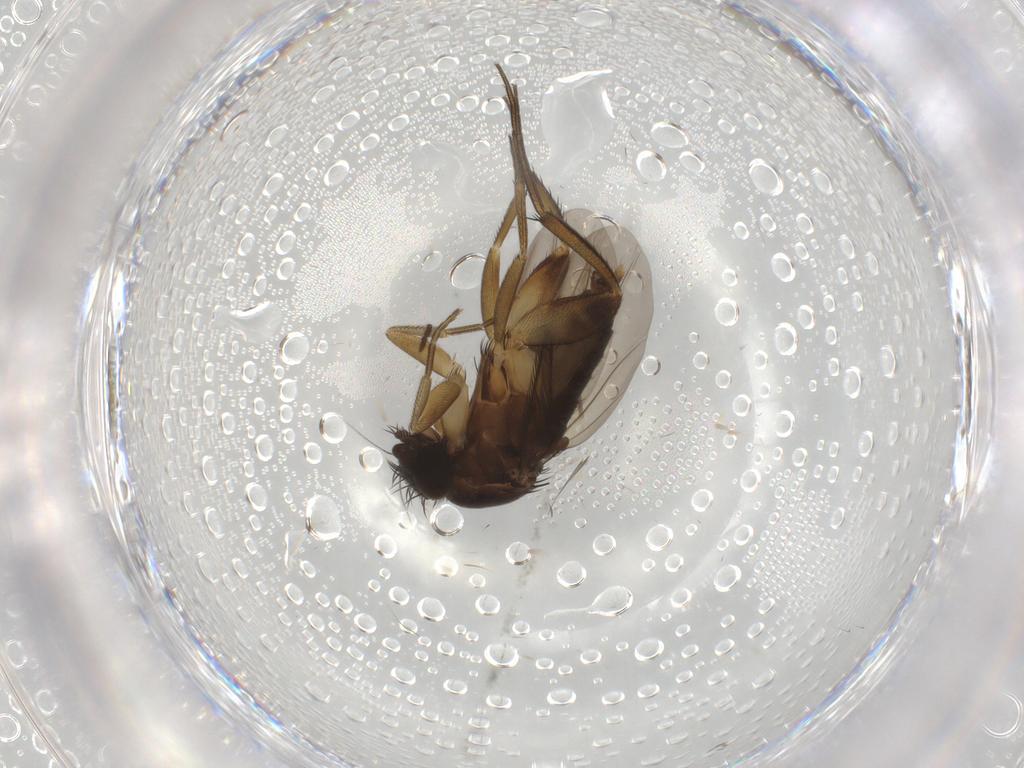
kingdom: Animalia
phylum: Arthropoda
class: Insecta
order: Diptera
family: Phoridae
